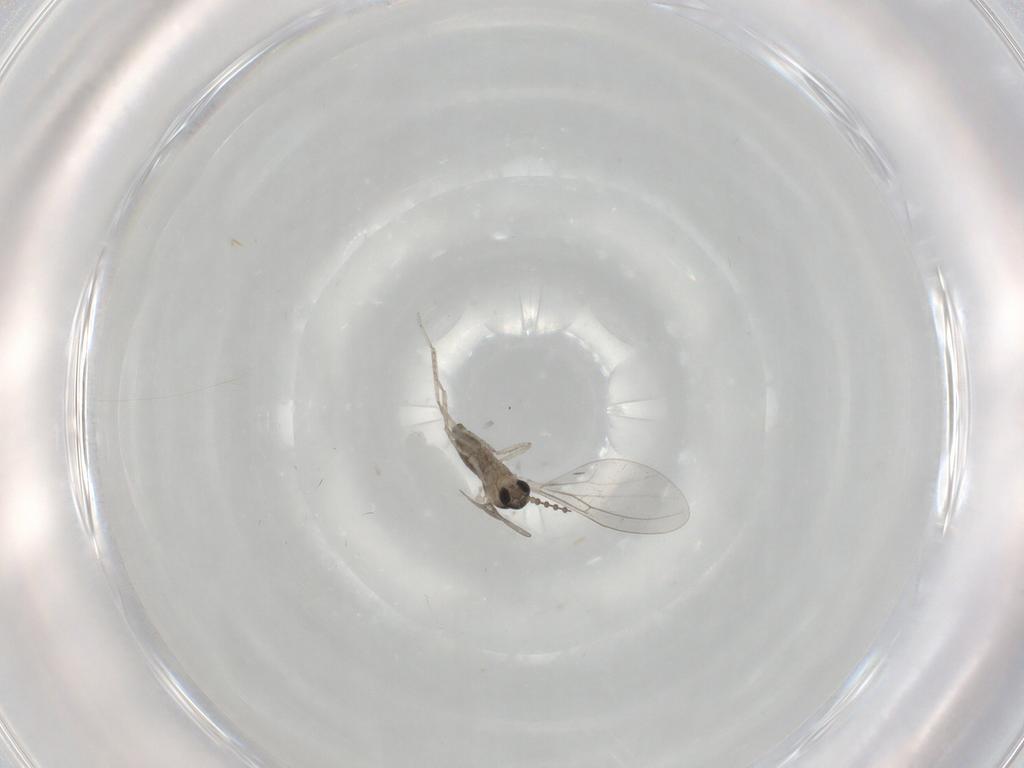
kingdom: Animalia
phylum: Arthropoda
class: Insecta
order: Diptera
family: Cecidomyiidae
